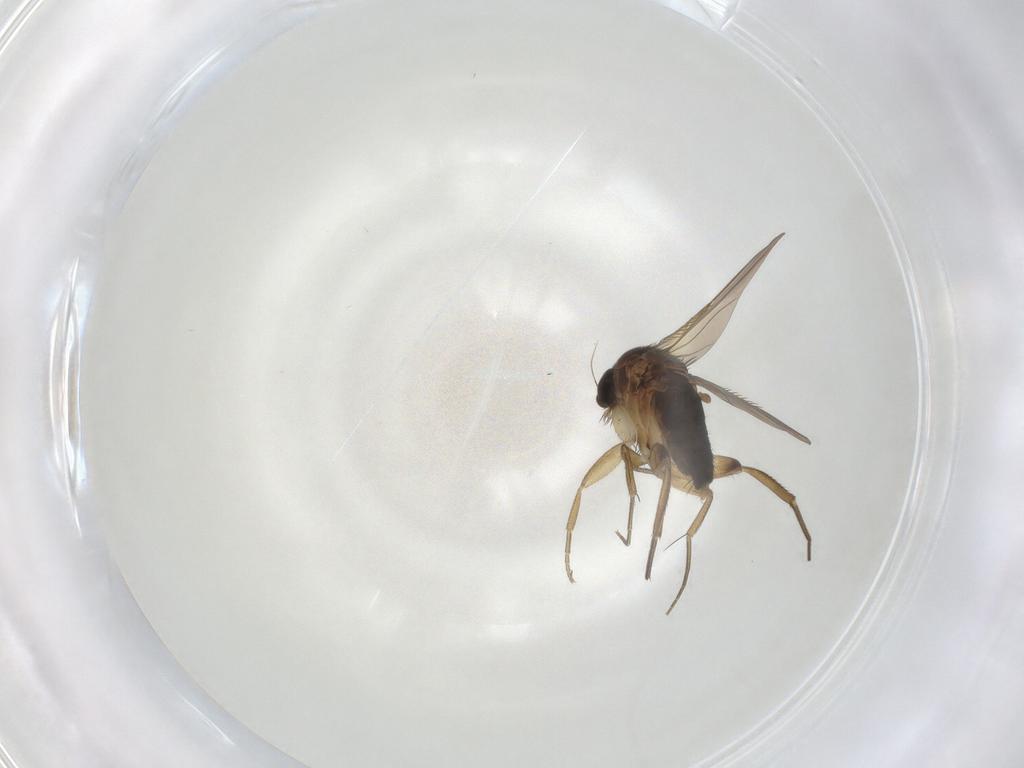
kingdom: Animalia
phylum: Arthropoda
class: Insecta
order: Diptera
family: Phoridae
